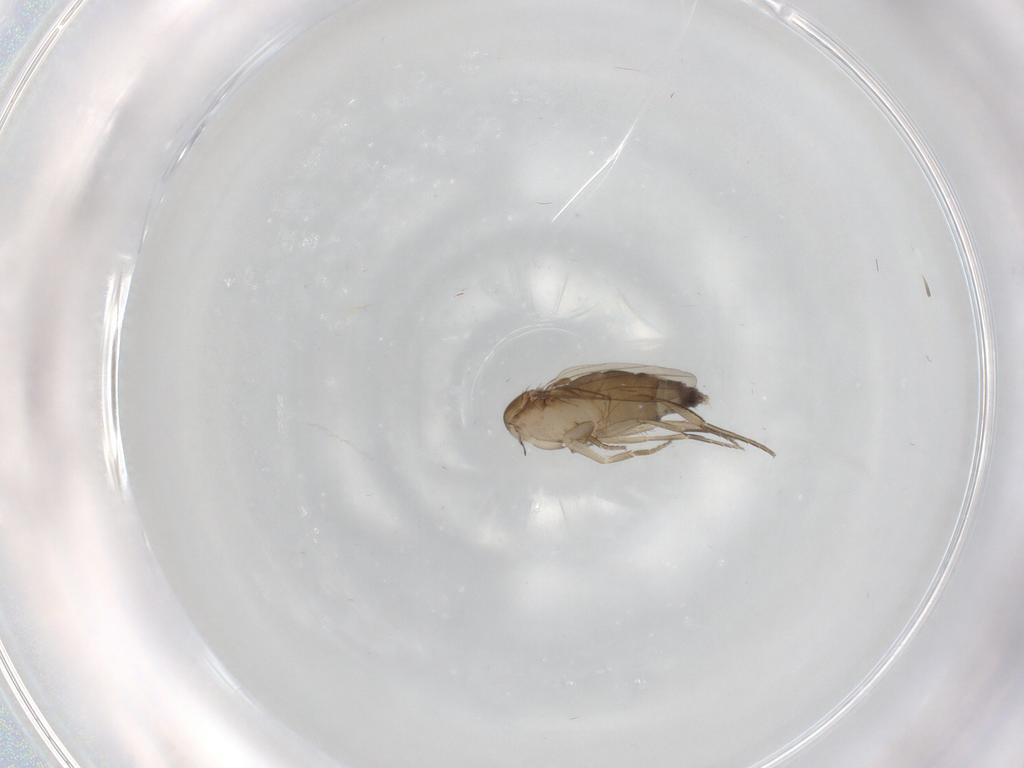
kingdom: Animalia
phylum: Arthropoda
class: Insecta
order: Diptera
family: Phoridae
